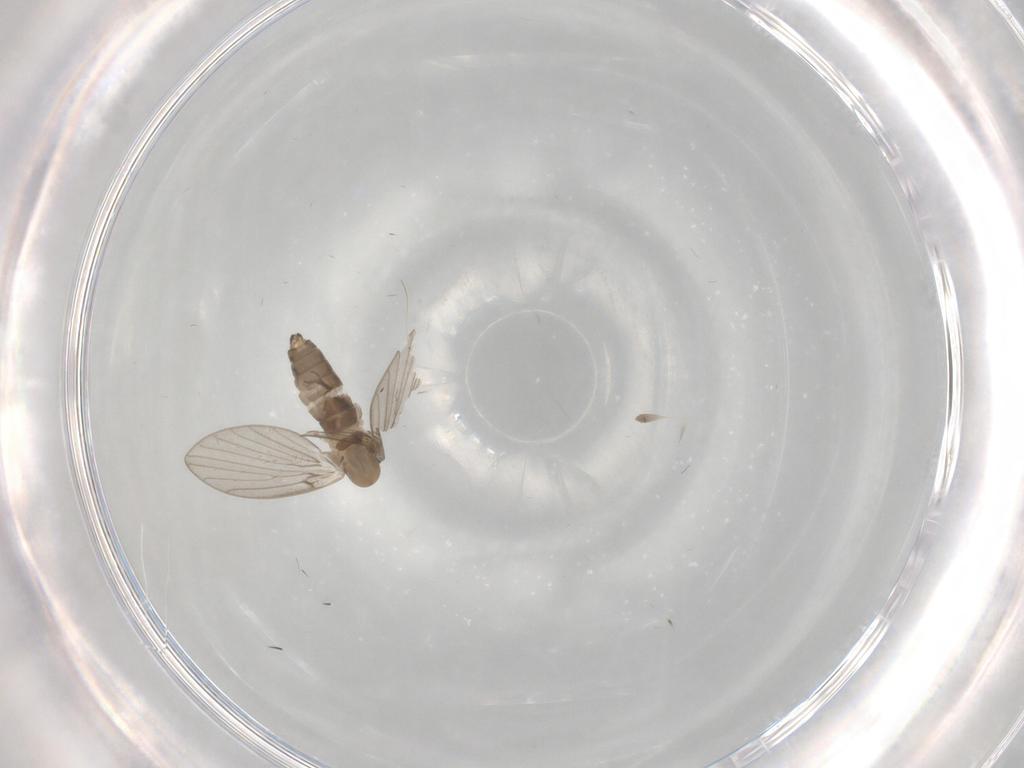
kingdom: Animalia
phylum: Arthropoda
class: Insecta
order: Diptera
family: Psychodidae
